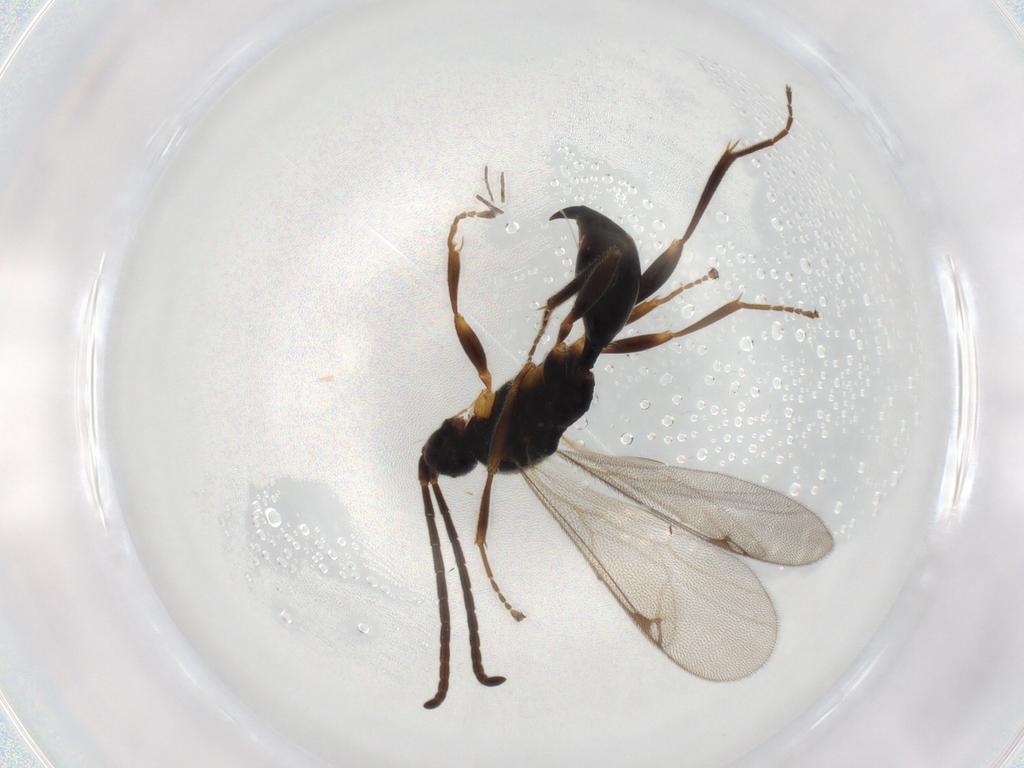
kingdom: Animalia
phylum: Arthropoda
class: Insecta
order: Hymenoptera
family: Proctotrupidae
